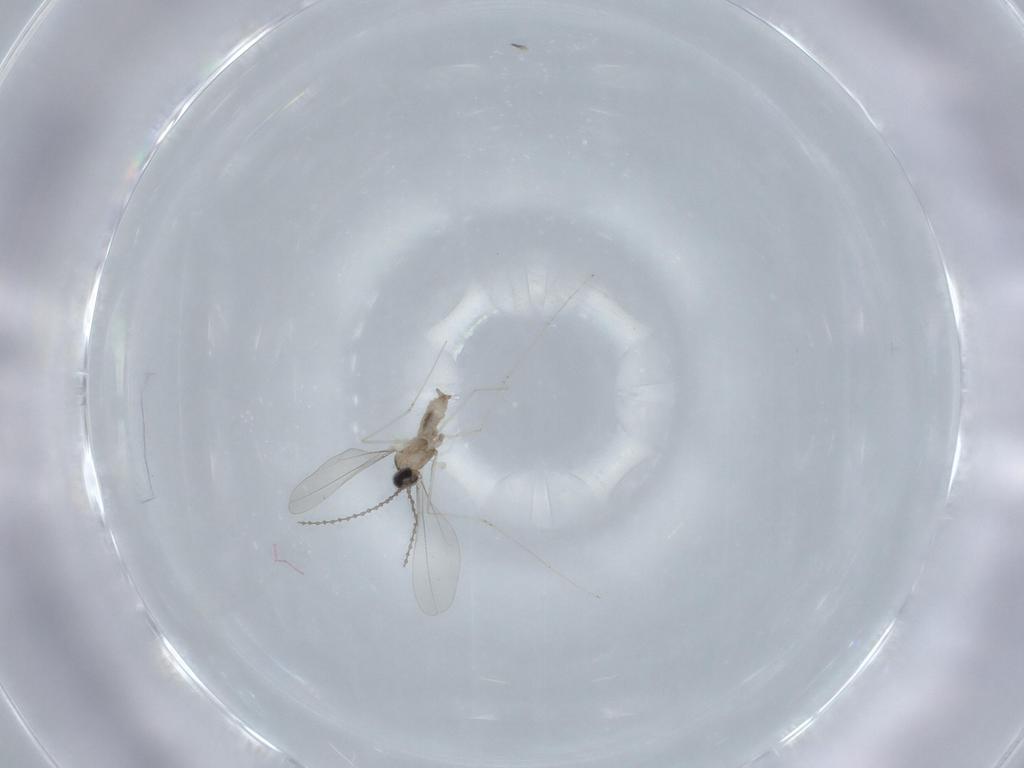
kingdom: Animalia
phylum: Arthropoda
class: Insecta
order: Diptera
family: Cecidomyiidae
